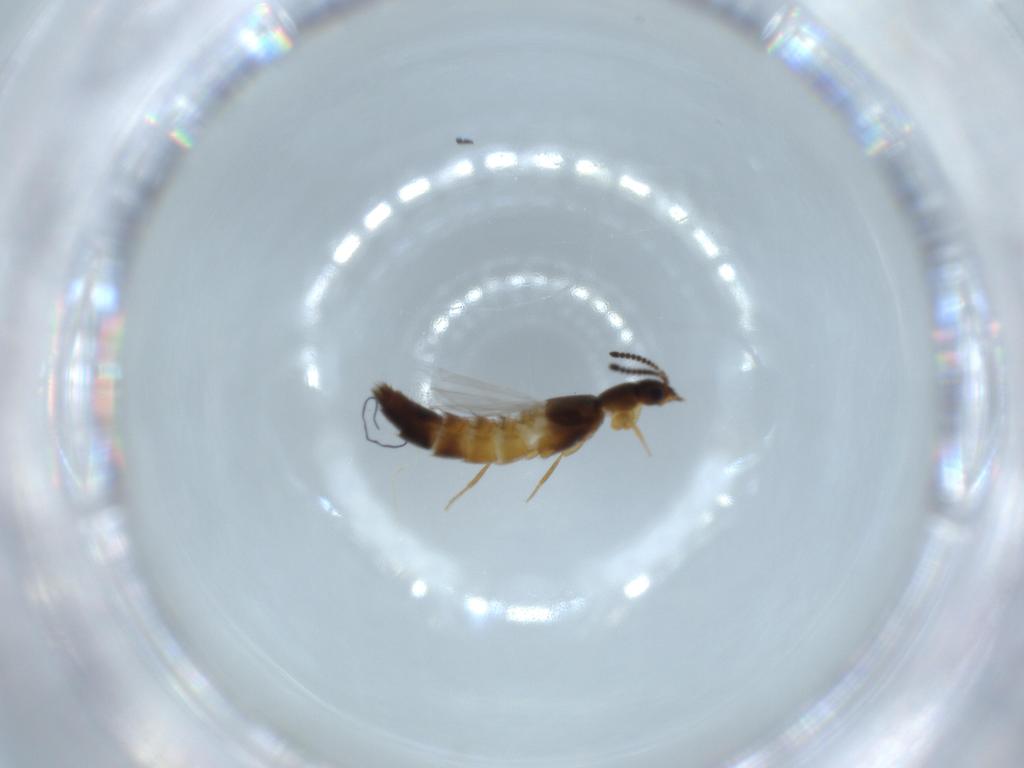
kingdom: Animalia
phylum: Arthropoda
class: Insecta
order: Coleoptera
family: Staphylinidae
